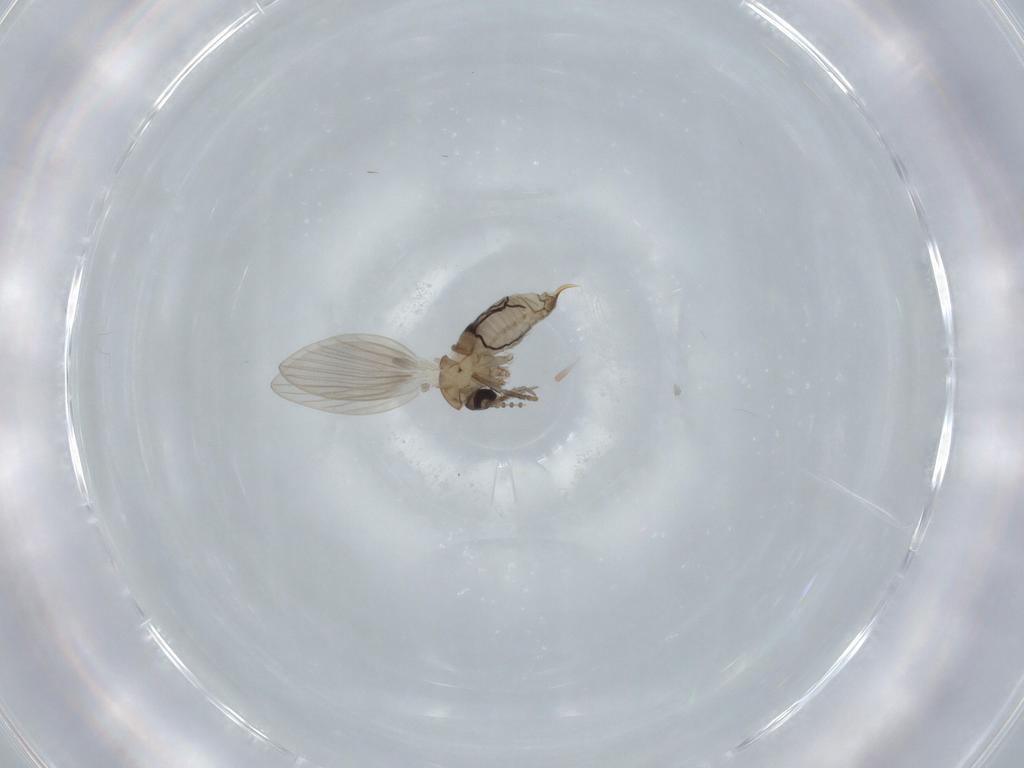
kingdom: Animalia
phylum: Arthropoda
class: Insecta
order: Diptera
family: Psychodidae
